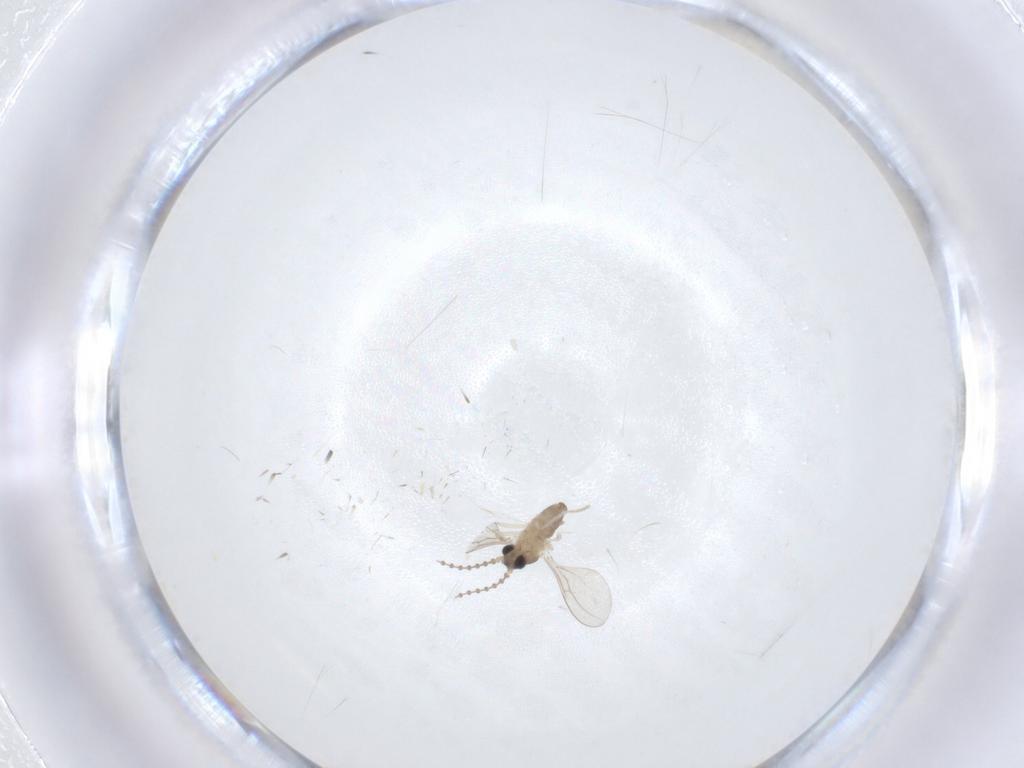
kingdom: Animalia
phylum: Arthropoda
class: Insecta
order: Diptera
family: Cecidomyiidae
